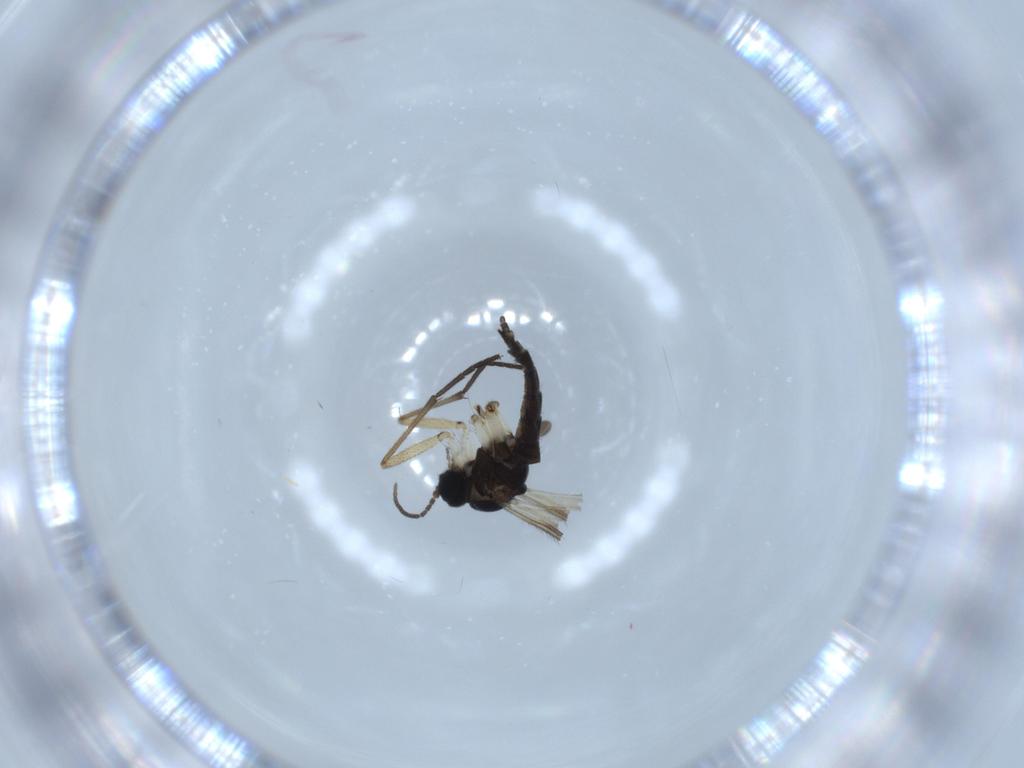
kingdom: Animalia
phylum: Arthropoda
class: Insecta
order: Diptera
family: Sciaridae
